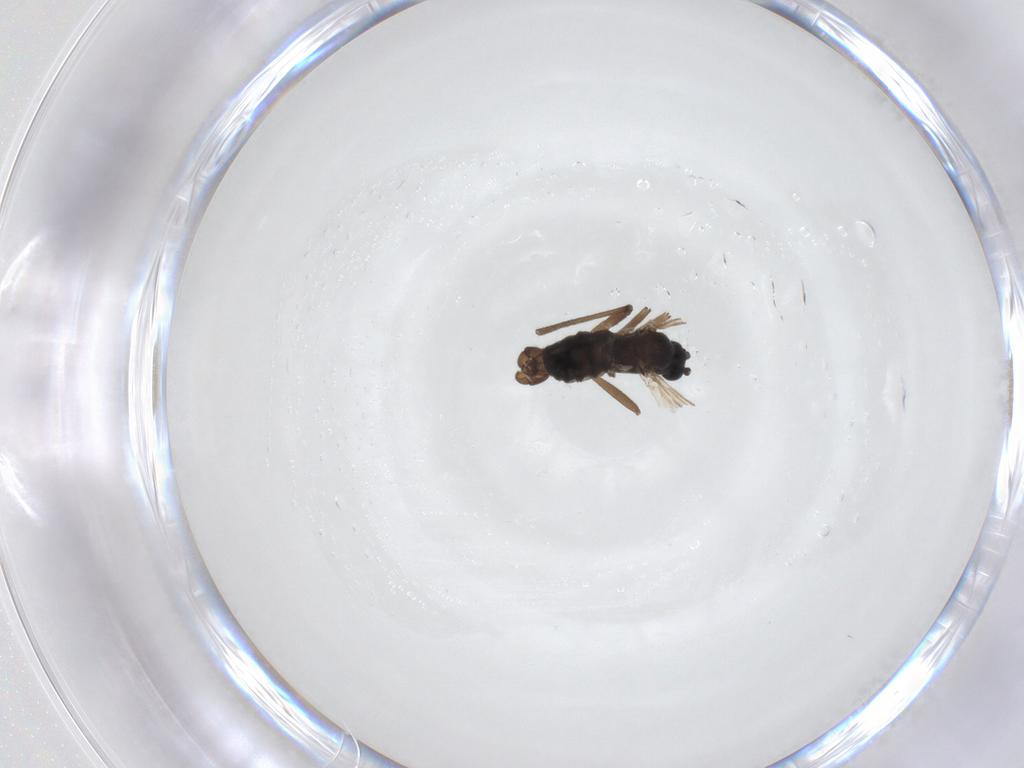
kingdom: Animalia
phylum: Arthropoda
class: Insecta
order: Diptera
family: Sciaridae
